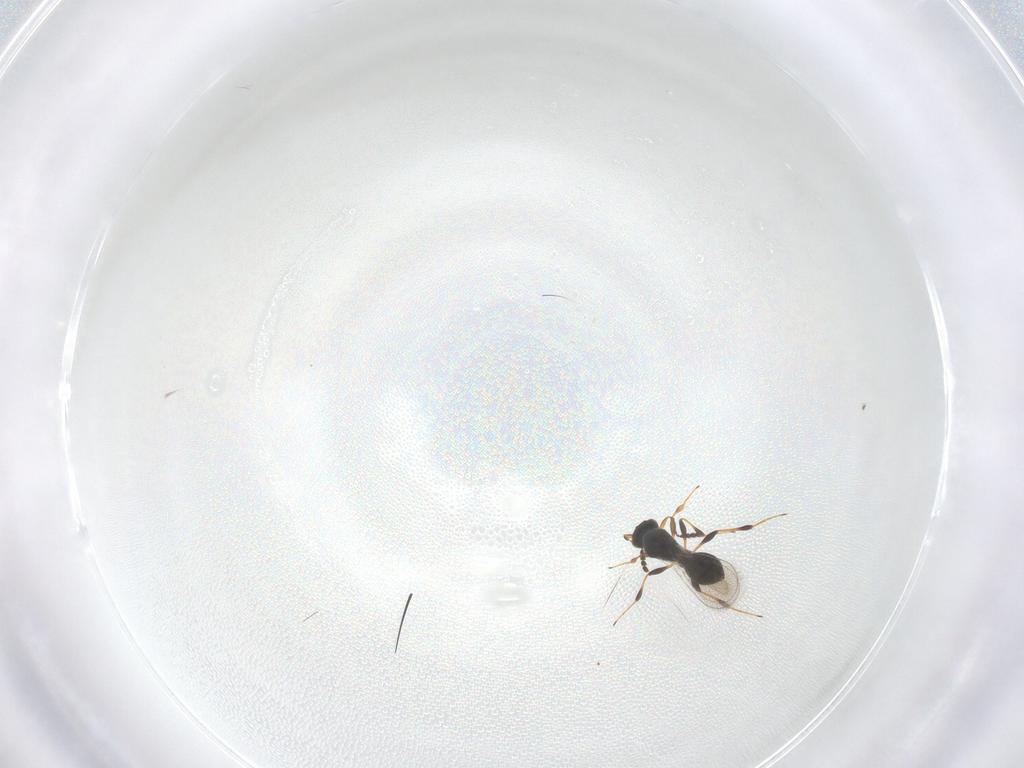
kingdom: Animalia
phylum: Arthropoda
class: Insecta
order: Hymenoptera
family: Platygastridae
